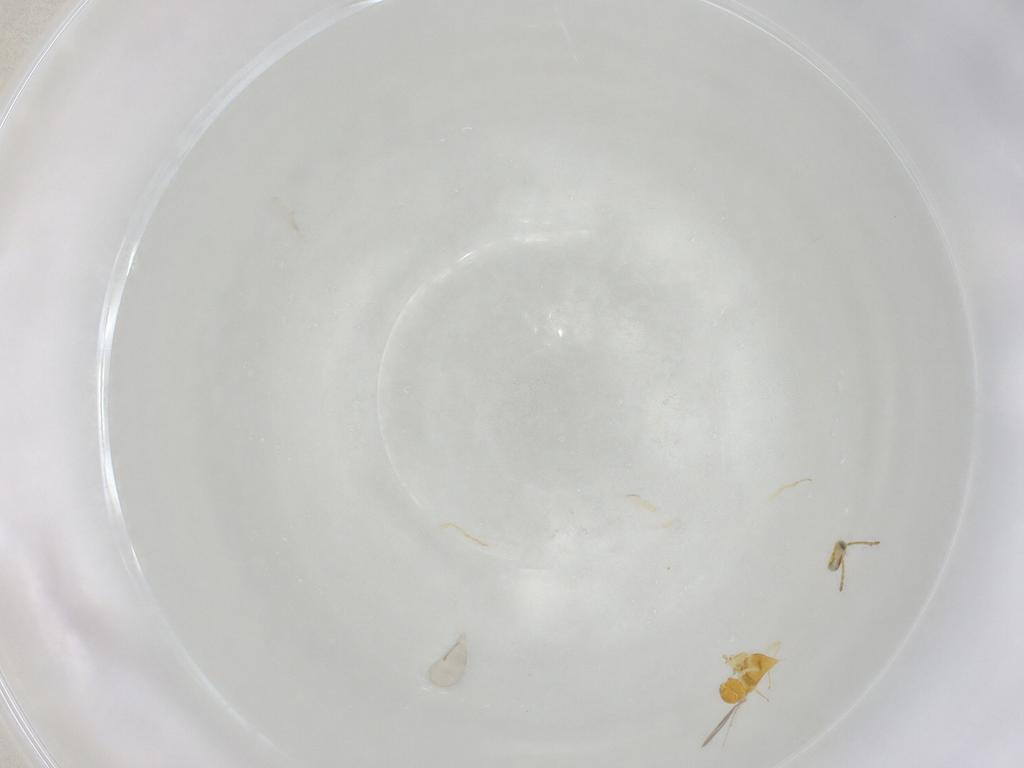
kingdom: Animalia
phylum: Arthropoda
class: Insecta
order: Hymenoptera
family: Aphelinidae
